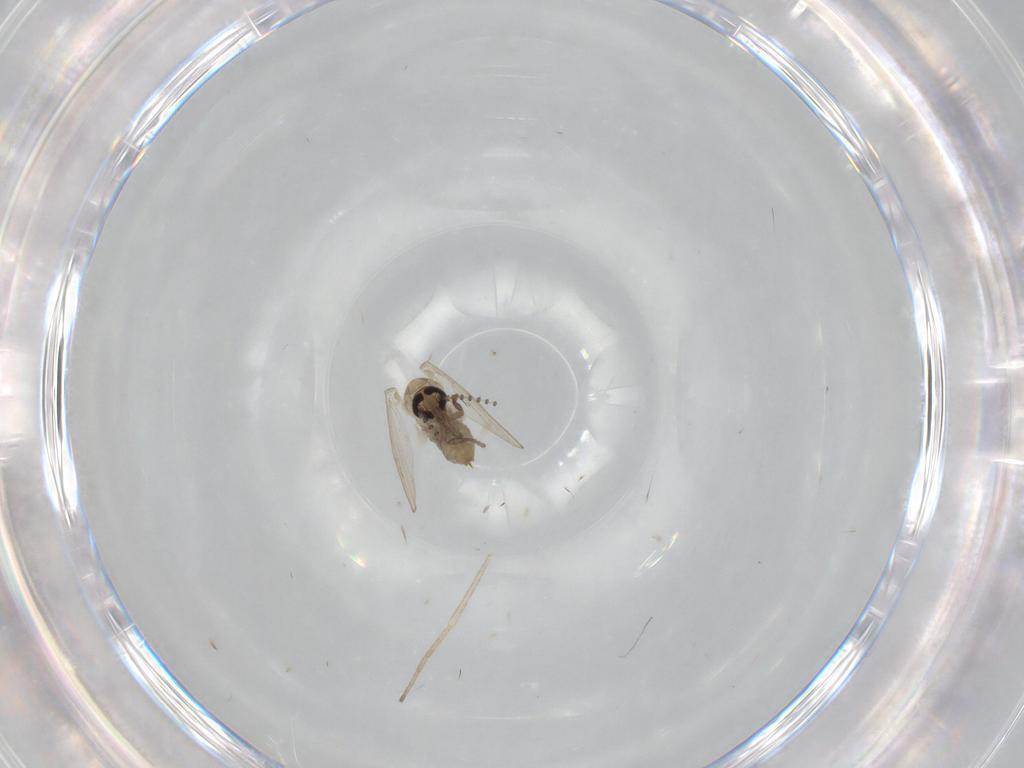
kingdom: Animalia
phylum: Arthropoda
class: Insecta
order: Diptera
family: Psychodidae
